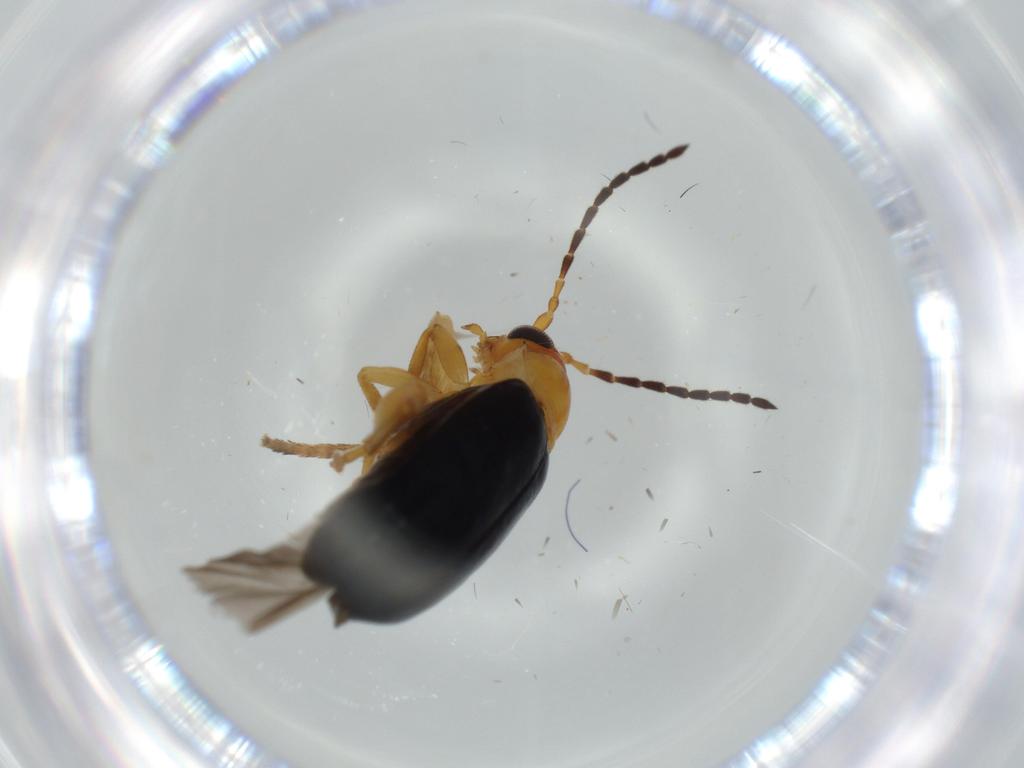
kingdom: Animalia
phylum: Arthropoda
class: Insecta
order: Coleoptera
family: Chrysomelidae
